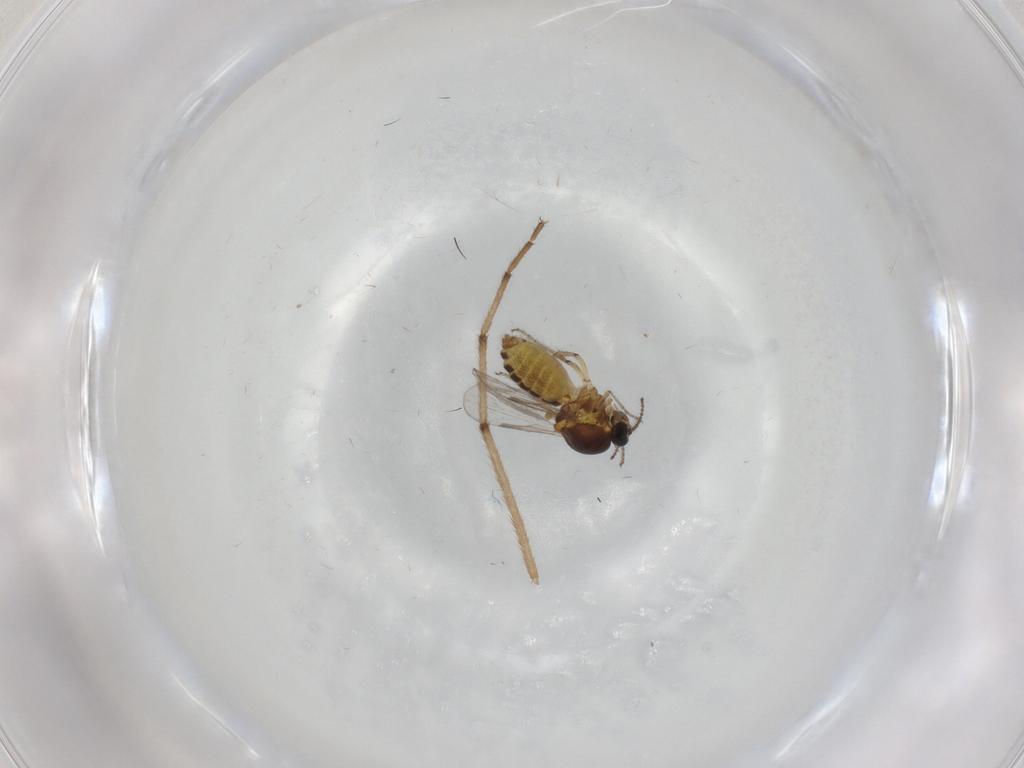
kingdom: Animalia
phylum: Arthropoda
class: Insecta
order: Diptera
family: Ceratopogonidae
